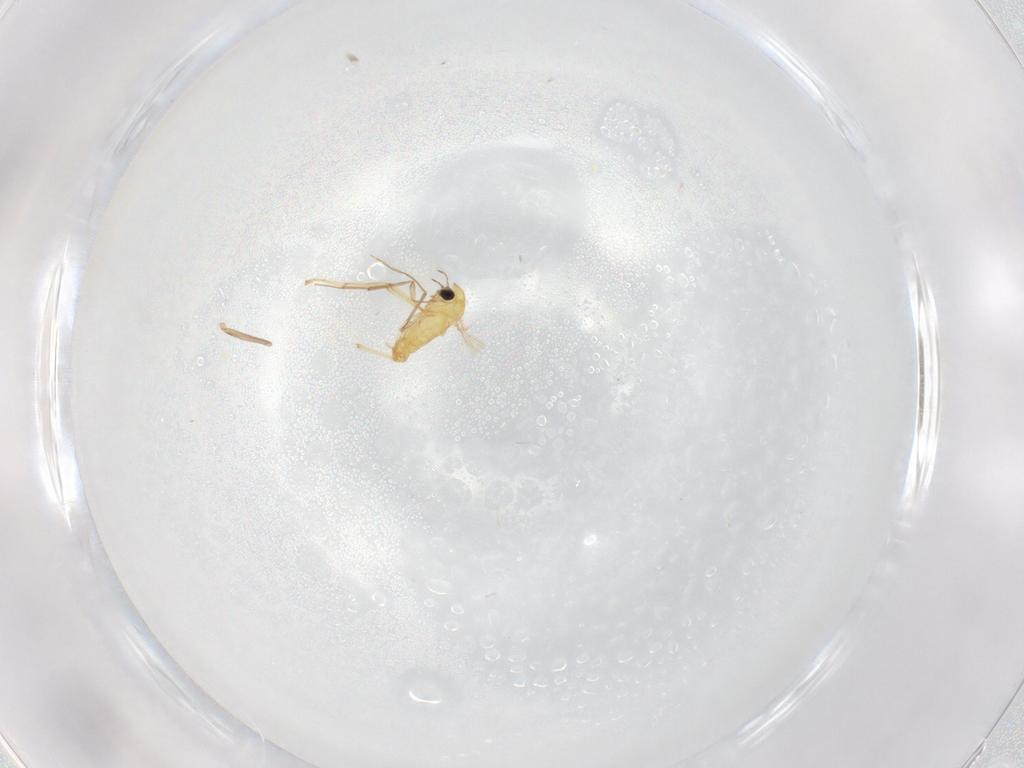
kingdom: Animalia
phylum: Arthropoda
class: Insecta
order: Diptera
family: Chironomidae
